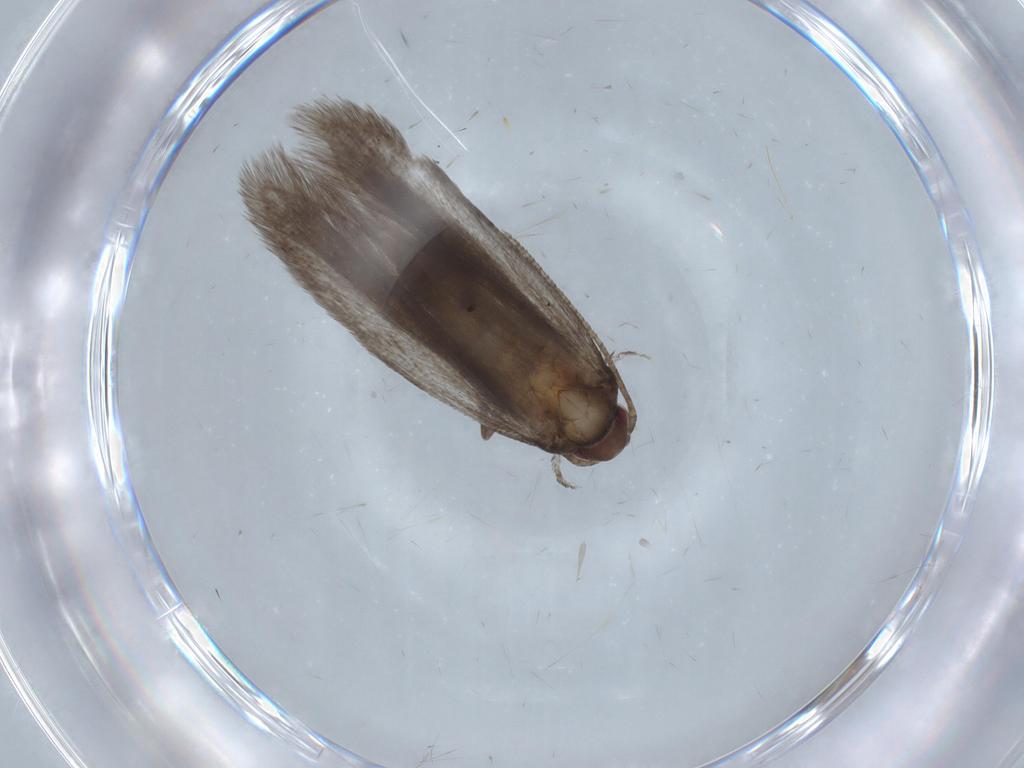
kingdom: Animalia
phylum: Arthropoda
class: Insecta
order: Lepidoptera
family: Gelechiidae
